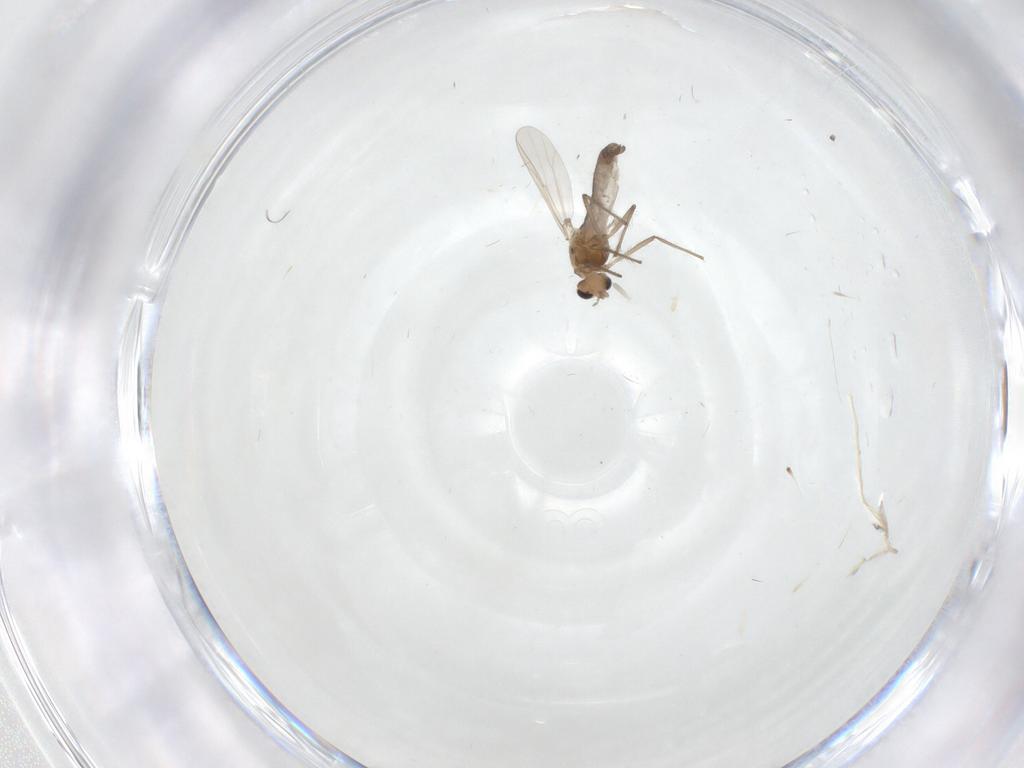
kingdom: Animalia
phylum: Arthropoda
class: Insecta
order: Diptera
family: Chironomidae
